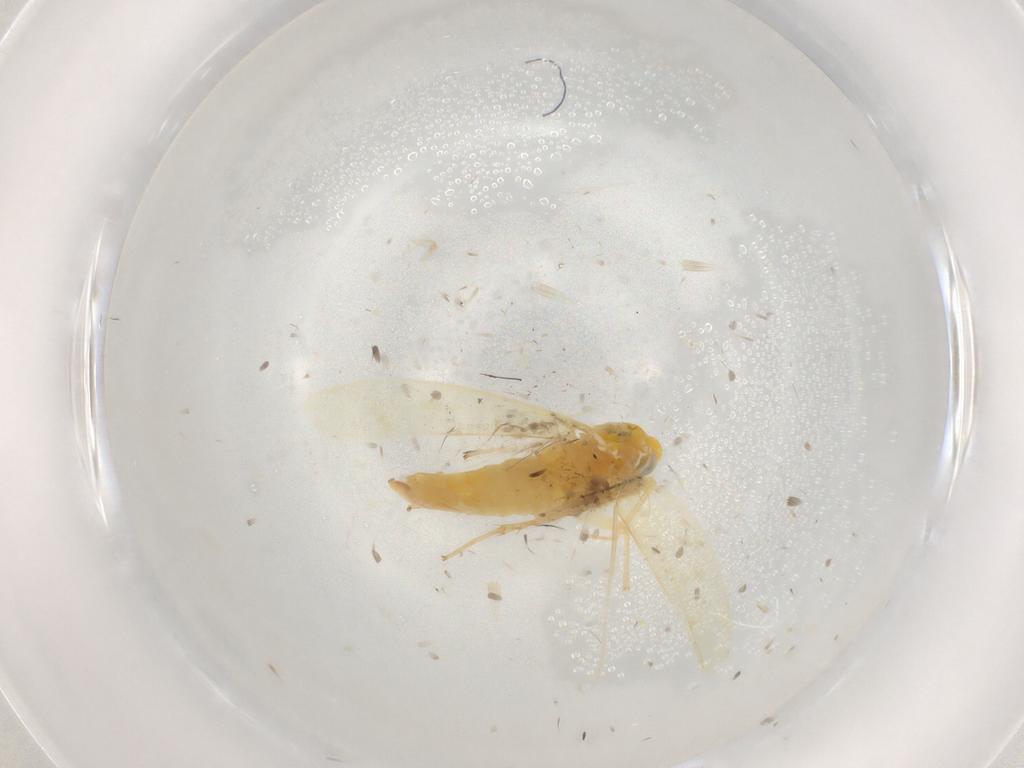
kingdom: Animalia
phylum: Arthropoda
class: Insecta
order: Hemiptera
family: Cicadellidae
